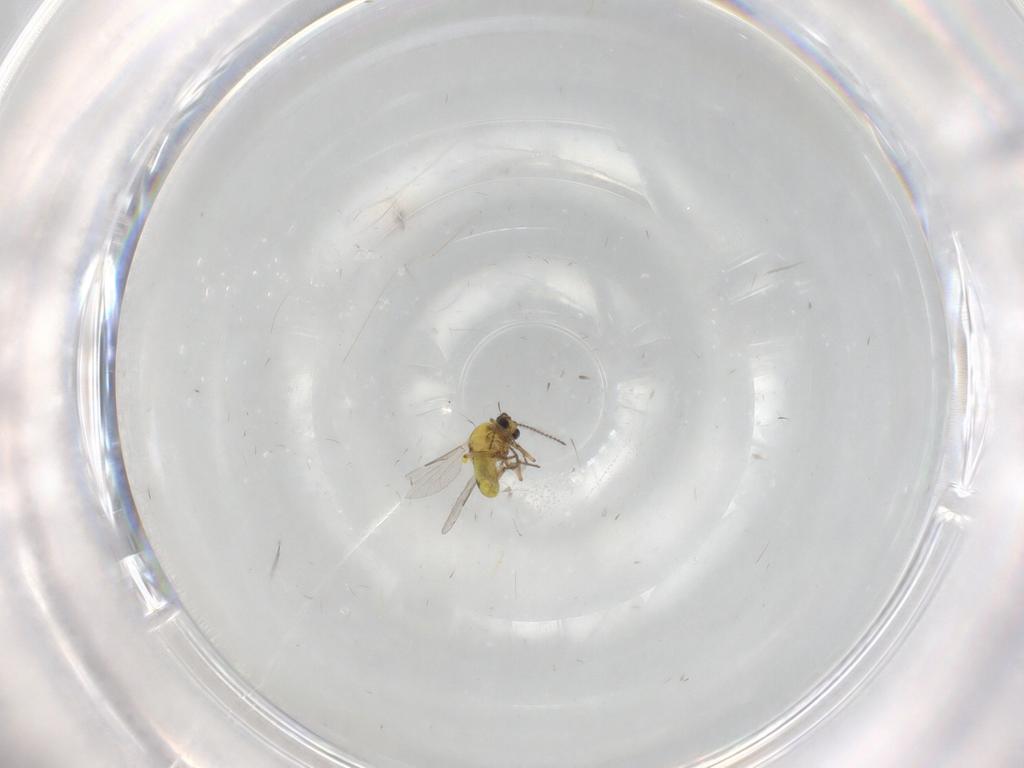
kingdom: Animalia
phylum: Arthropoda
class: Insecta
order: Diptera
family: Ceratopogonidae
